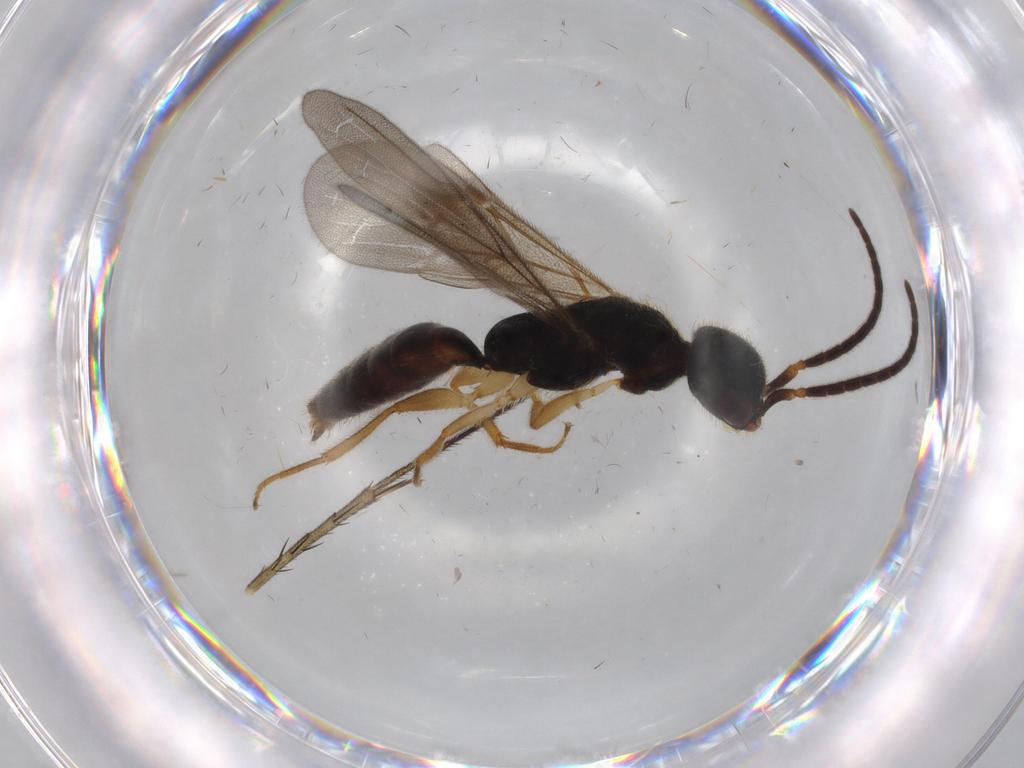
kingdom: Animalia
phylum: Arthropoda
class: Insecta
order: Hymenoptera
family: Bethylidae
